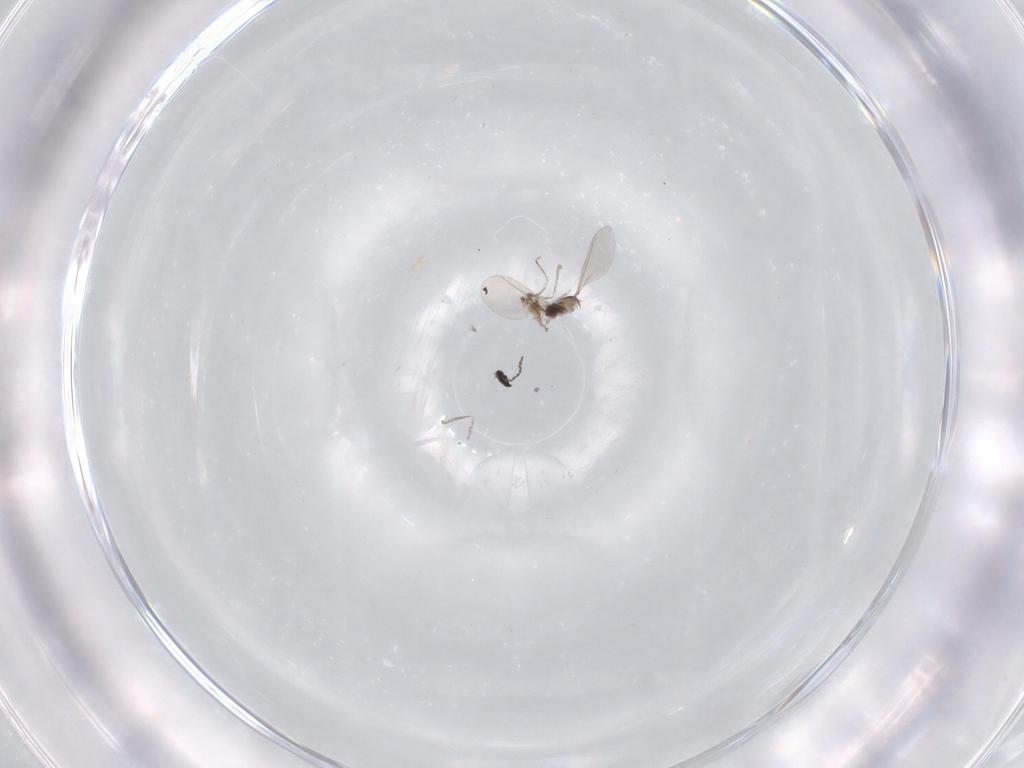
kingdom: Animalia
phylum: Arthropoda
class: Insecta
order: Diptera
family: Cecidomyiidae
